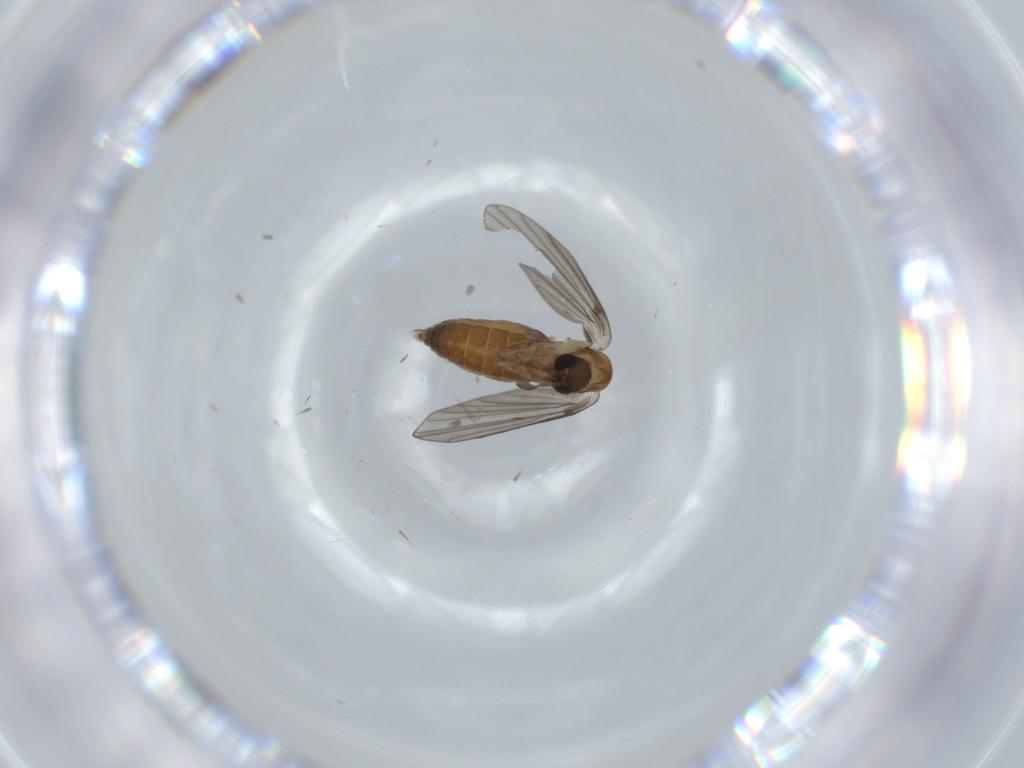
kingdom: Animalia
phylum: Arthropoda
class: Insecta
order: Diptera
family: Psychodidae
